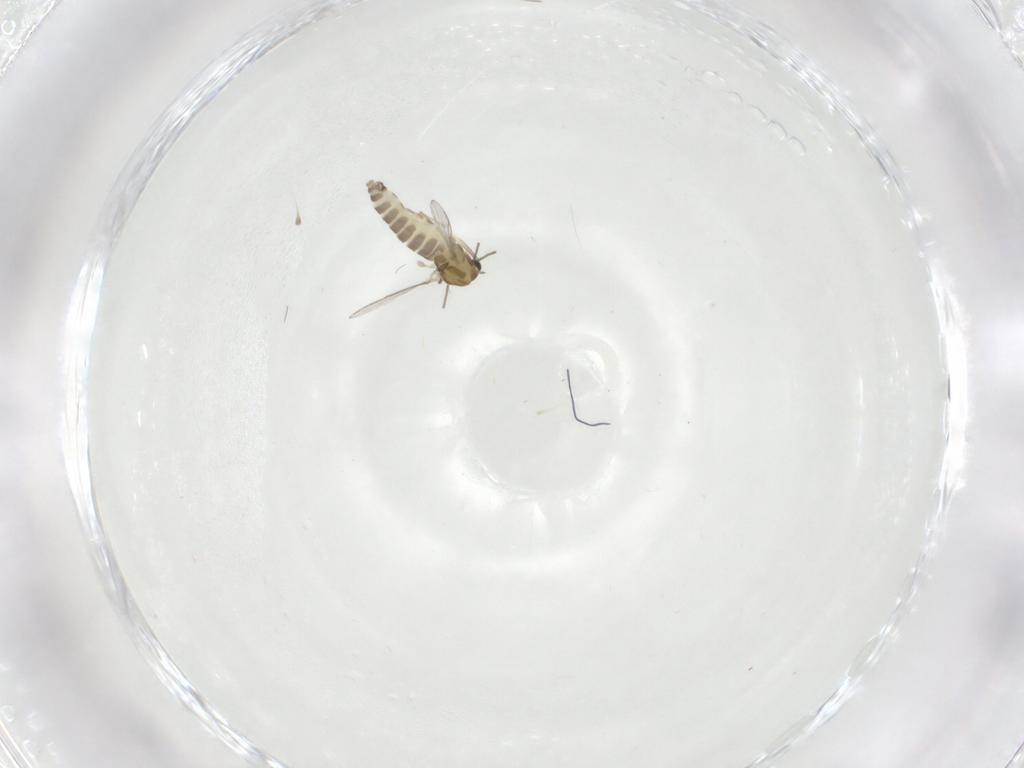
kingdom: Animalia
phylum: Arthropoda
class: Insecta
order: Diptera
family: Chironomidae
